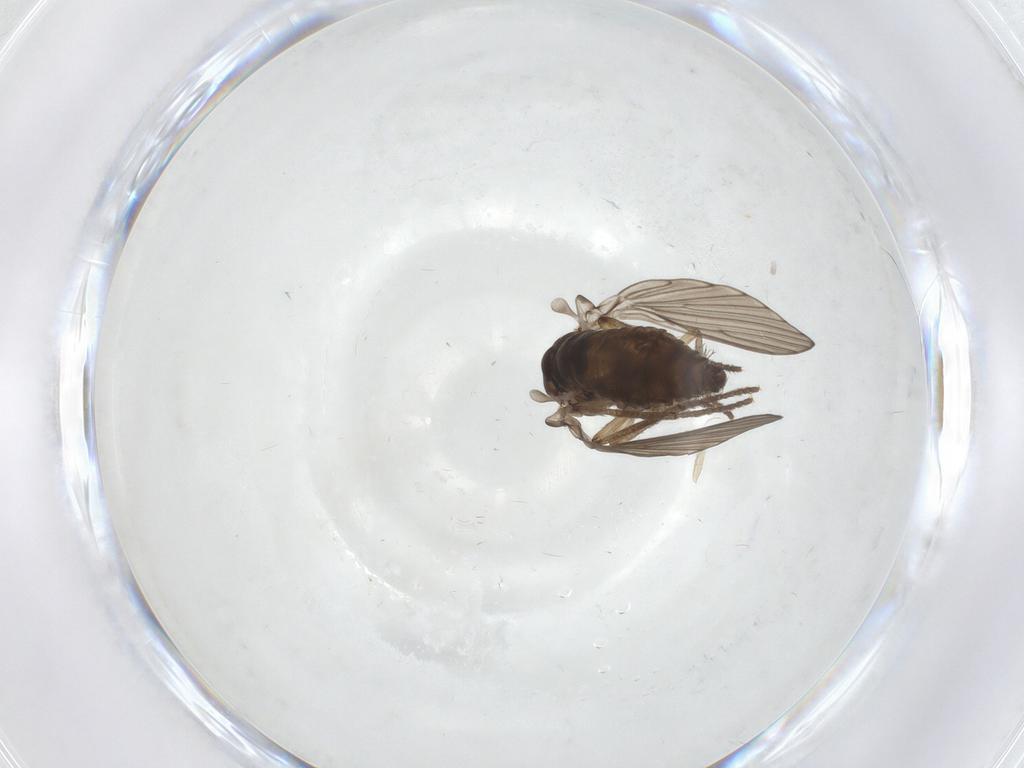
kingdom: Animalia
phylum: Arthropoda
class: Insecta
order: Diptera
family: Psychodidae
